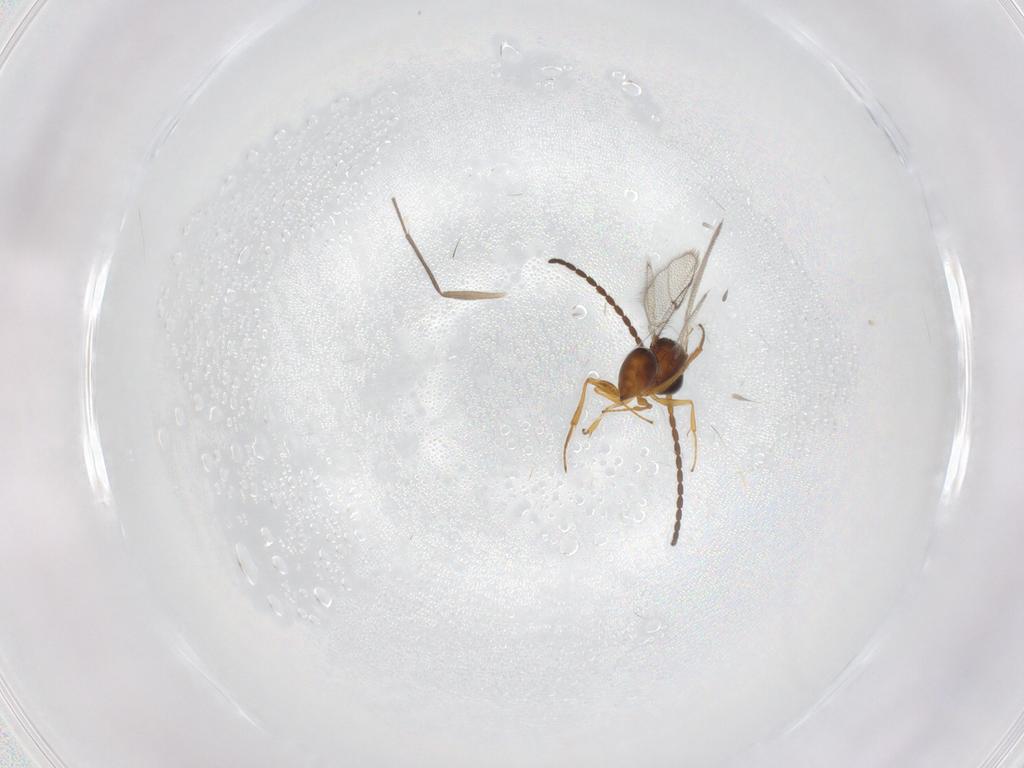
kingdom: Animalia
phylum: Arthropoda
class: Insecta
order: Hymenoptera
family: Figitidae
